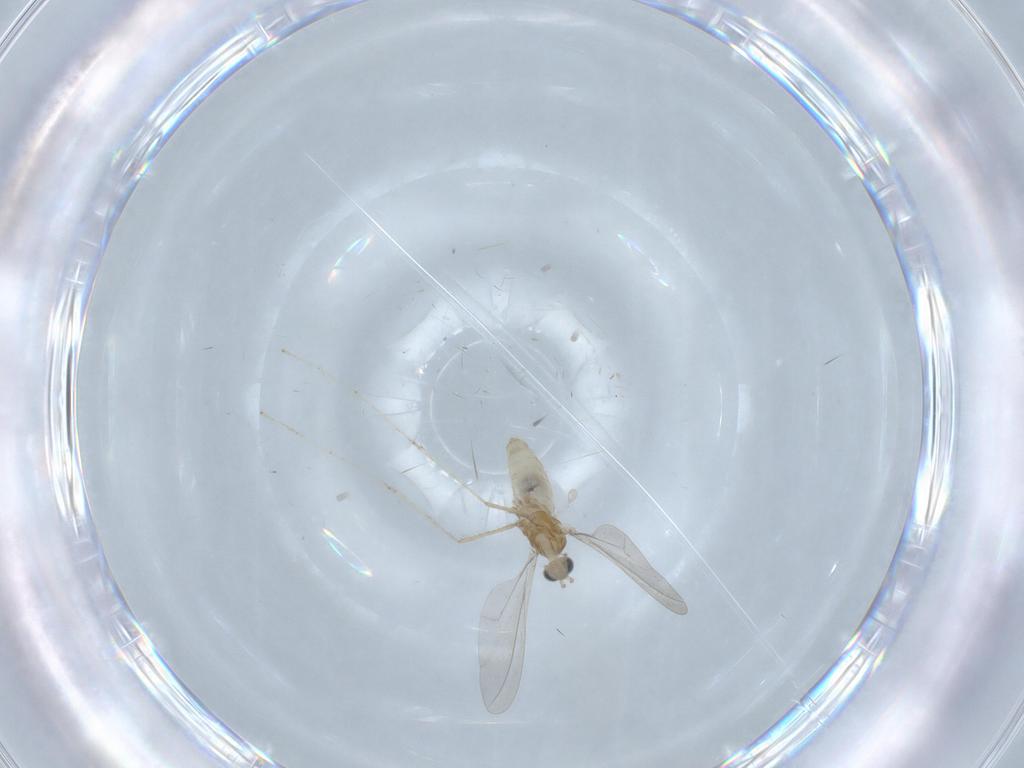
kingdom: Animalia
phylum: Arthropoda
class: Insecta
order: Diptera
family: Cecidomyiidae
